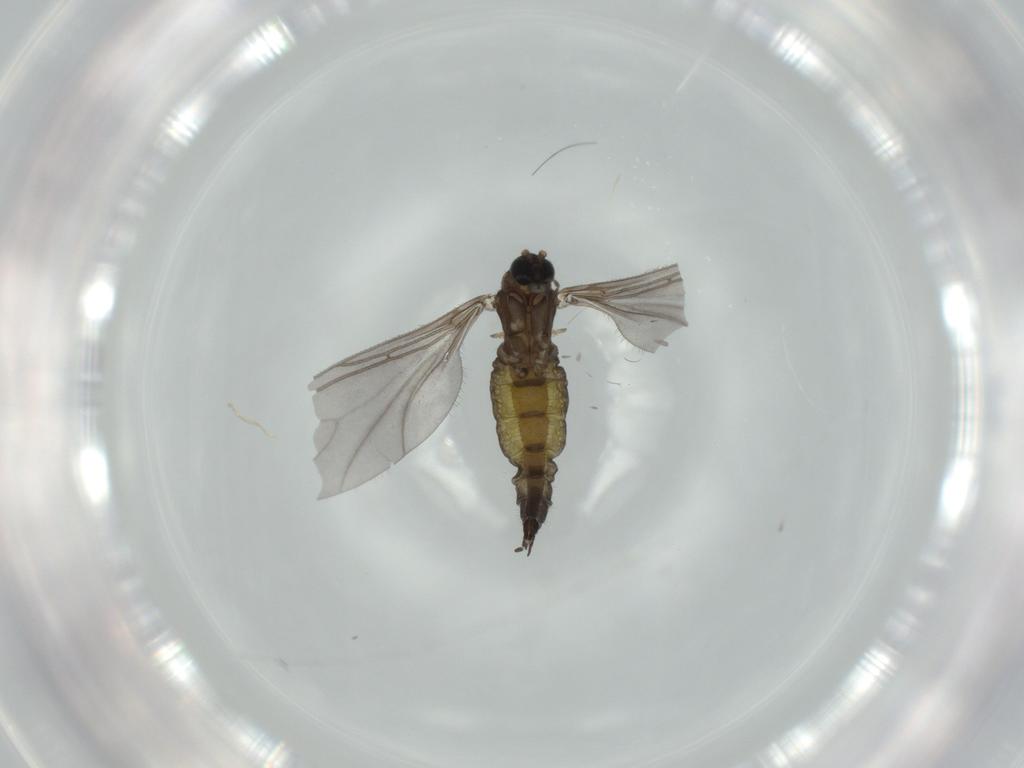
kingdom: Animalia
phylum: Arthropoda
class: Insecta
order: Diptera
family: Sciaridae
